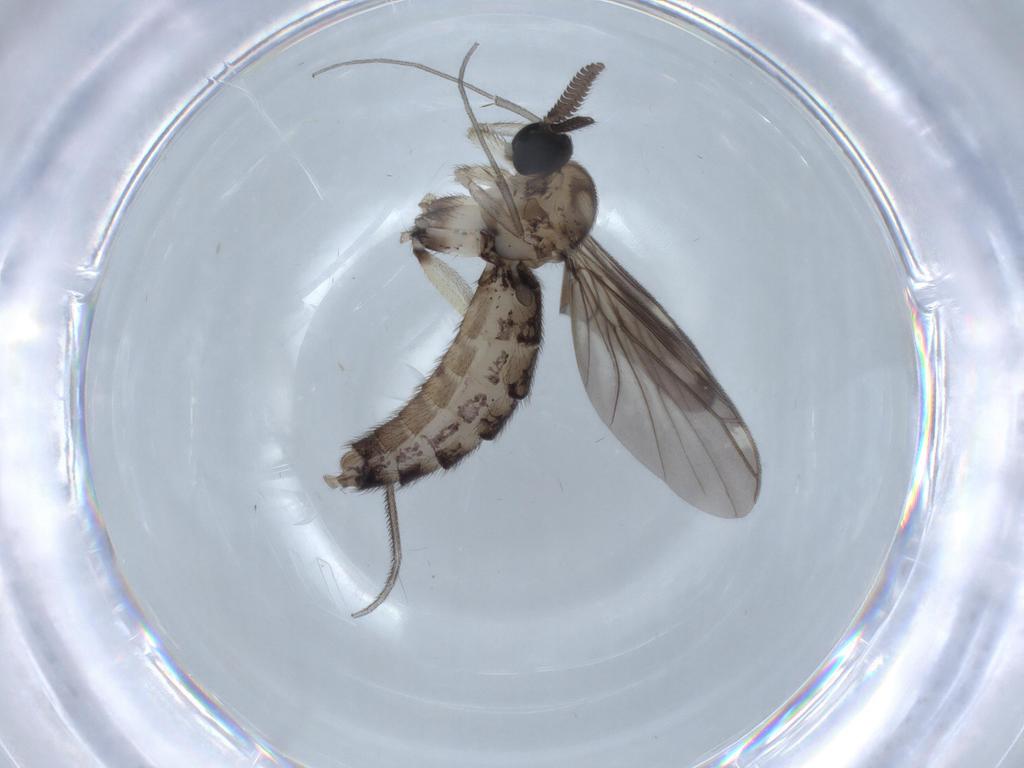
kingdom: Animalia
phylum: Arthropoda
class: Insecta
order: Diptera
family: Keroplatidae
